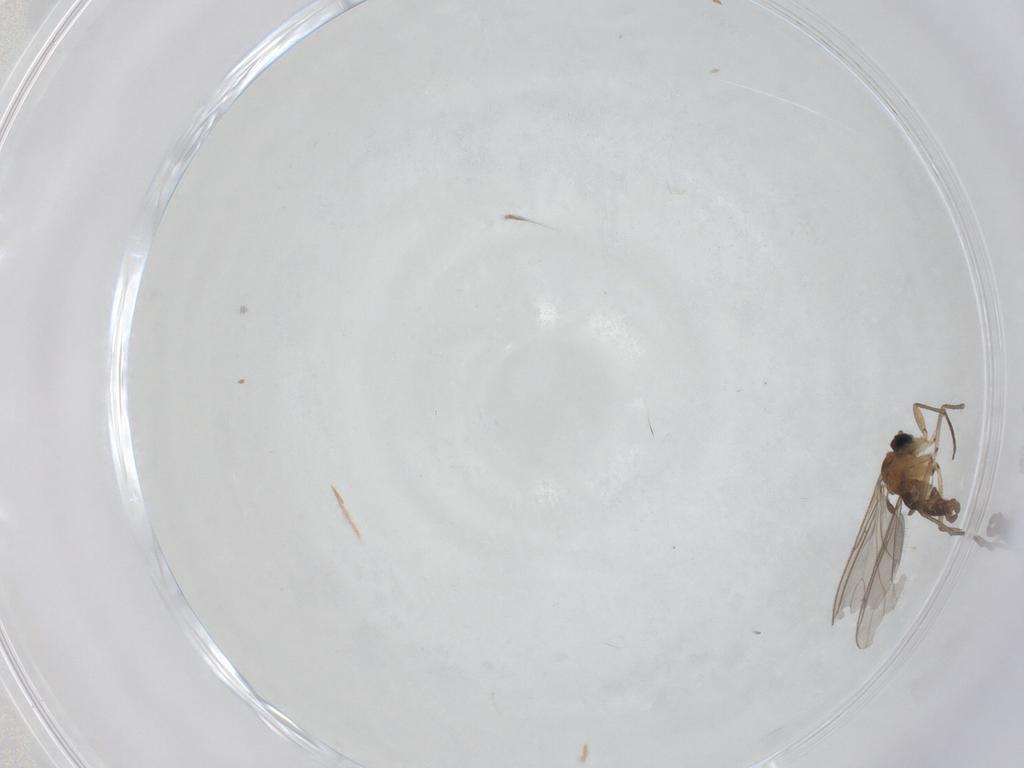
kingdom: Animalia
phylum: Arthropoda
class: Insecta
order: Diptera
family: Sciaridae
